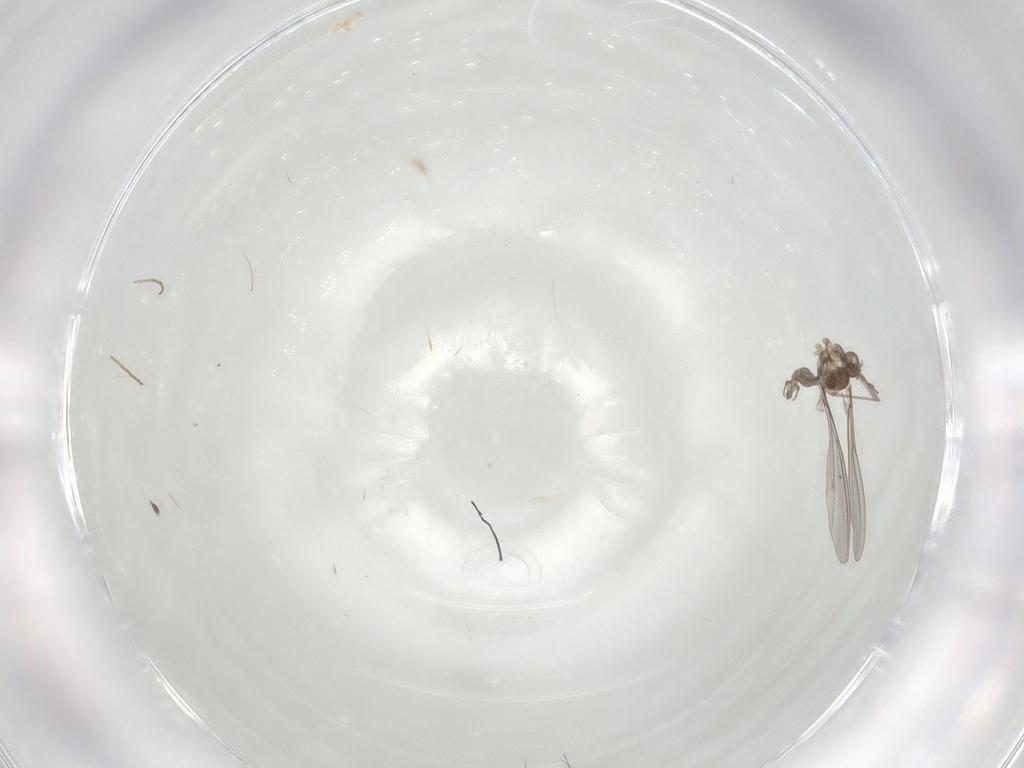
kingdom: Animalia
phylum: Arthropoda
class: Insecta
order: Diptera
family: Cecidomyiidae
